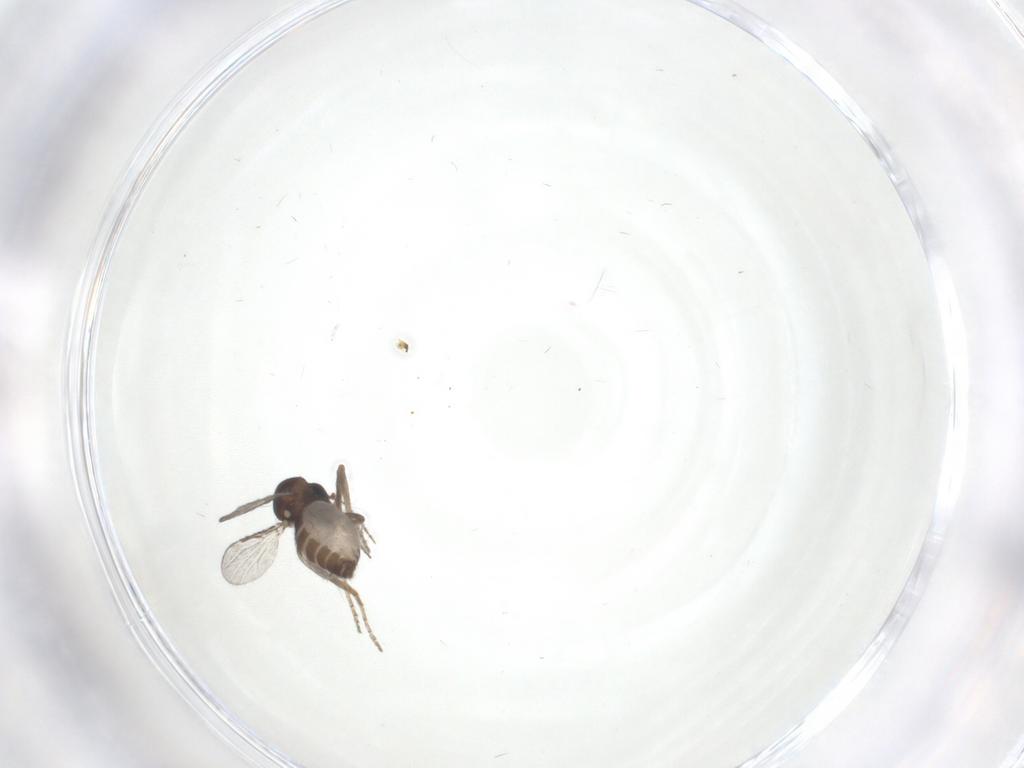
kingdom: Animalia
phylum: Arthropoda
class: Insecta
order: Diptera
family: Ceratopogonidae
